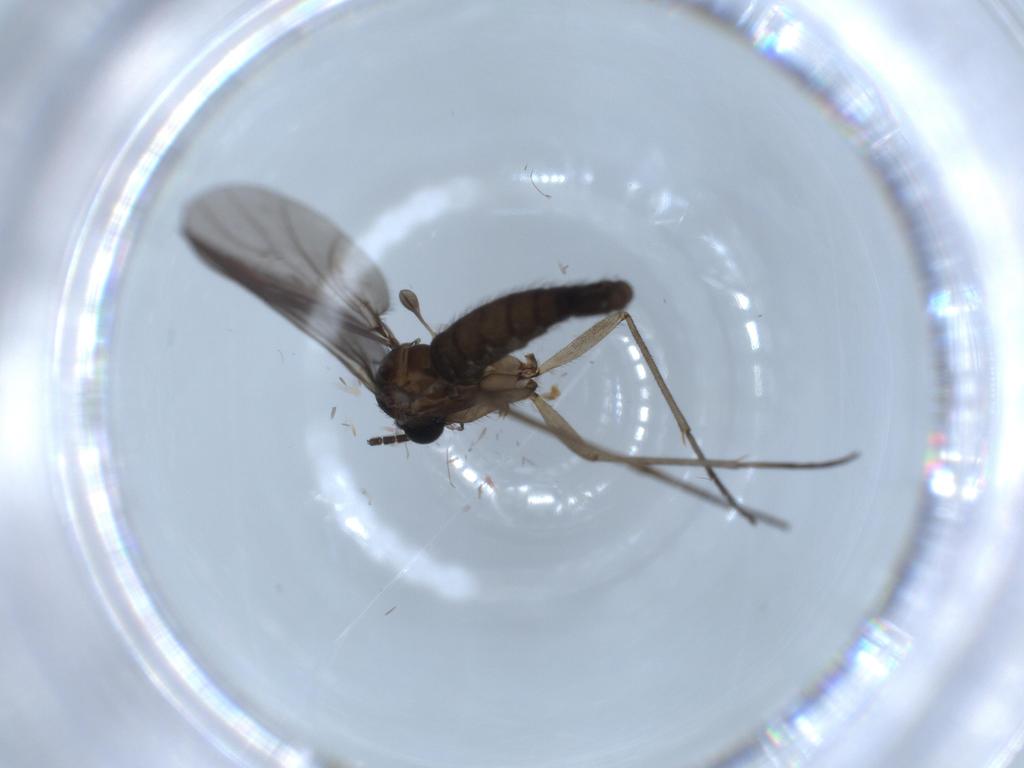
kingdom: Animalia
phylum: Arthropoda
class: Insecta
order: Diptera
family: Sciaridae
